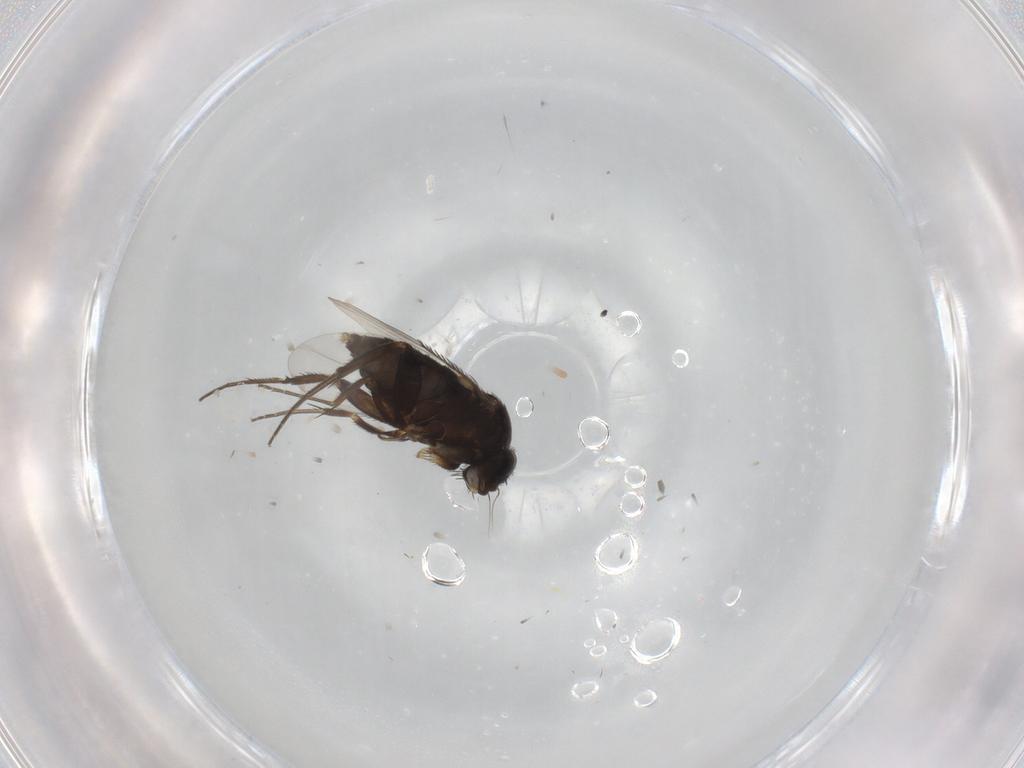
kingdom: Animalia
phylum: Arthropoda
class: Insecta
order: Diptera
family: Phoridae
